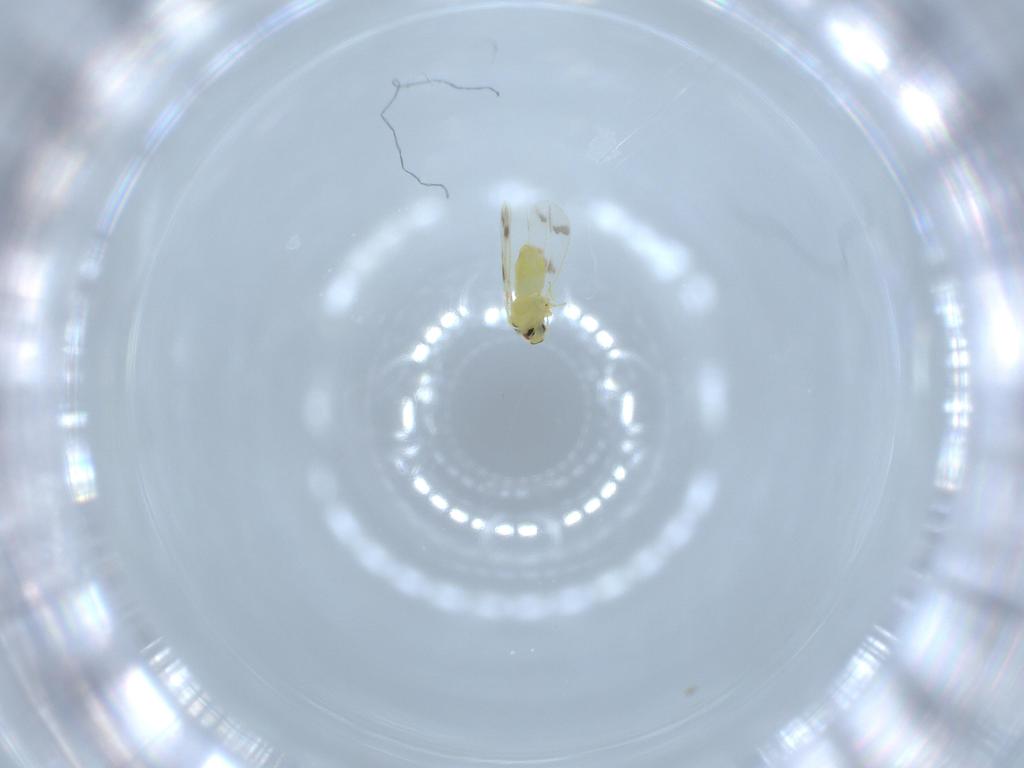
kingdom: Animalia
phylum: Arthropoda
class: Insecta
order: Hemiptera
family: Aleyrodidae
